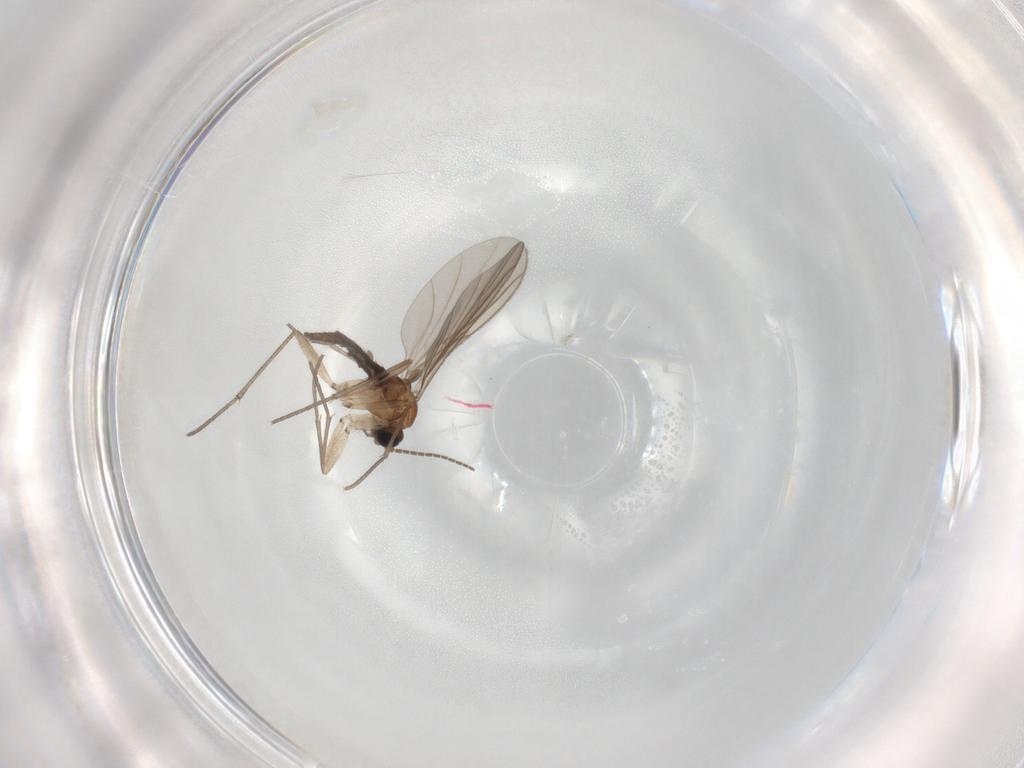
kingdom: Animalia
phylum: Arthropoda
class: Insecta
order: Diptera
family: Sciaridae
